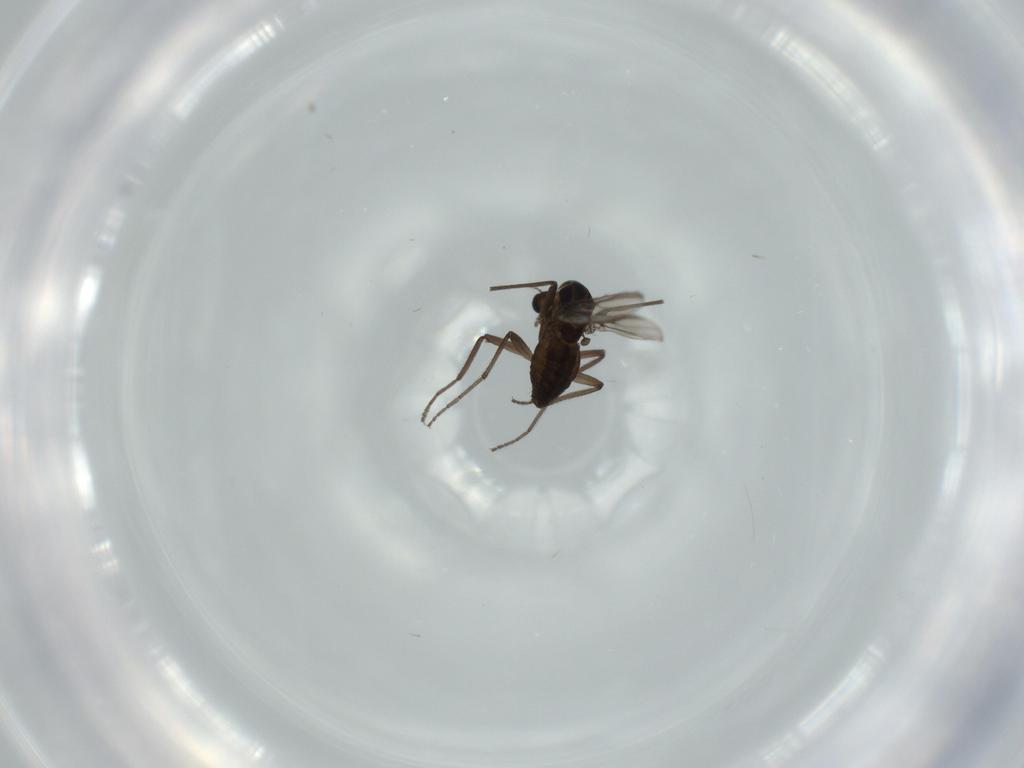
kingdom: Animalia
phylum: Arthropoda
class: Insecta
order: Diptera
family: Chironomidae
